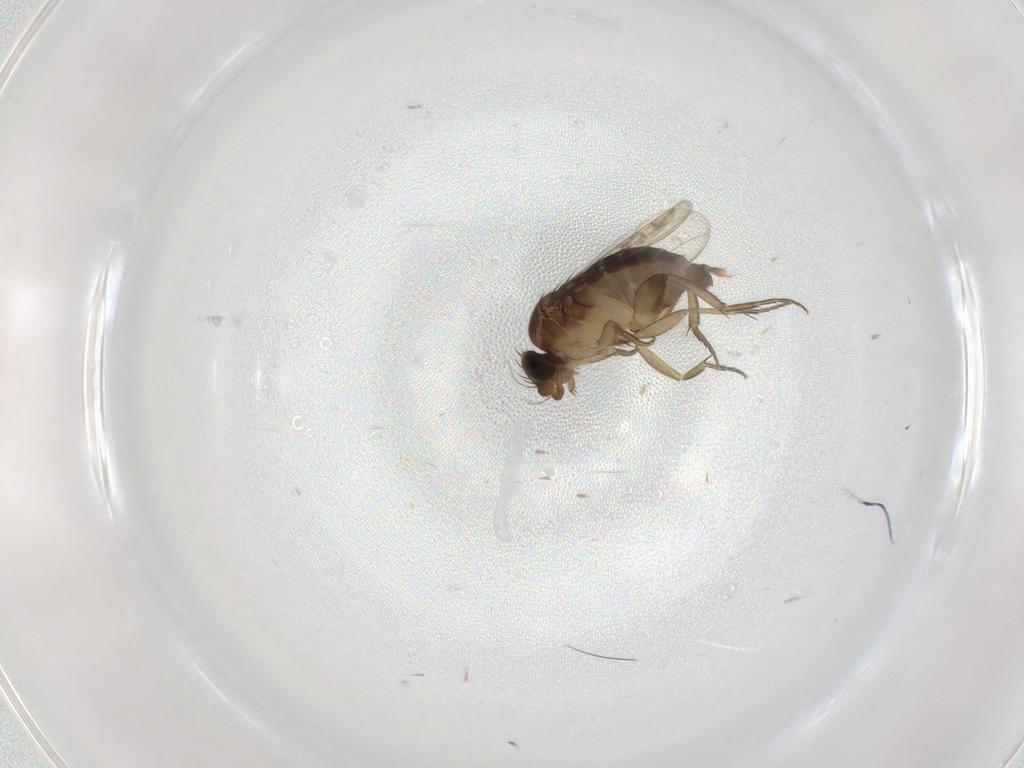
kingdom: Animalia
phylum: Arthropoda
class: Insecta
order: Diptera
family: Phoridae
